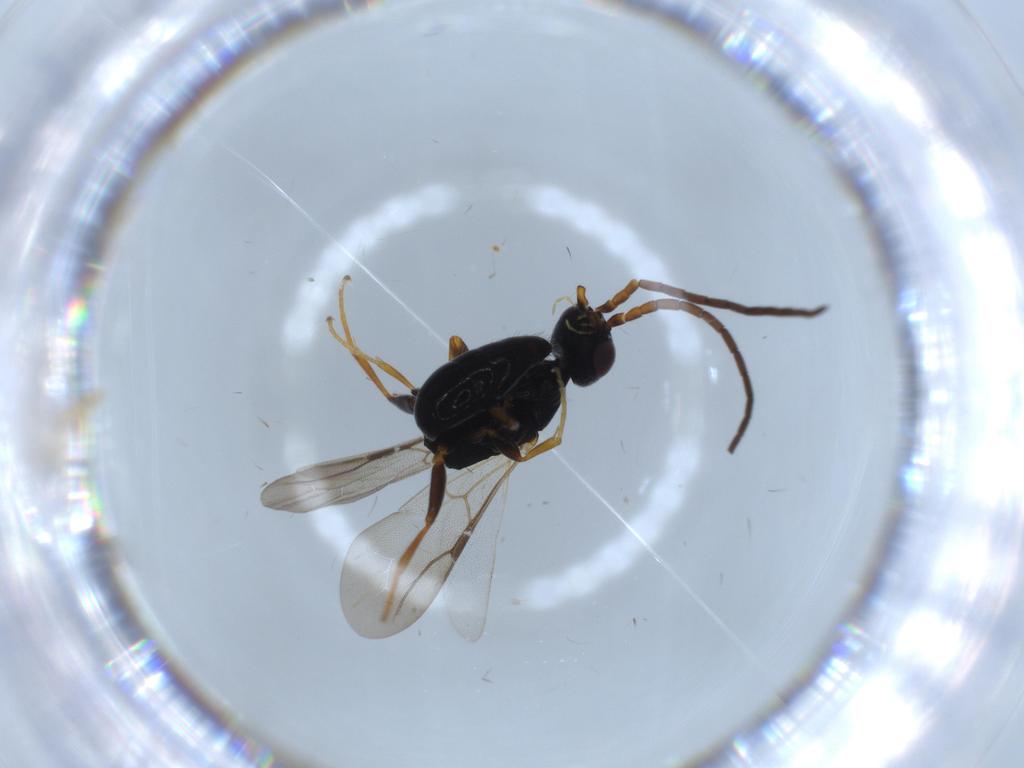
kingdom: Animalia
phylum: Arthropoda
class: Insecta
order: Hymenoptera
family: Bethylidae
